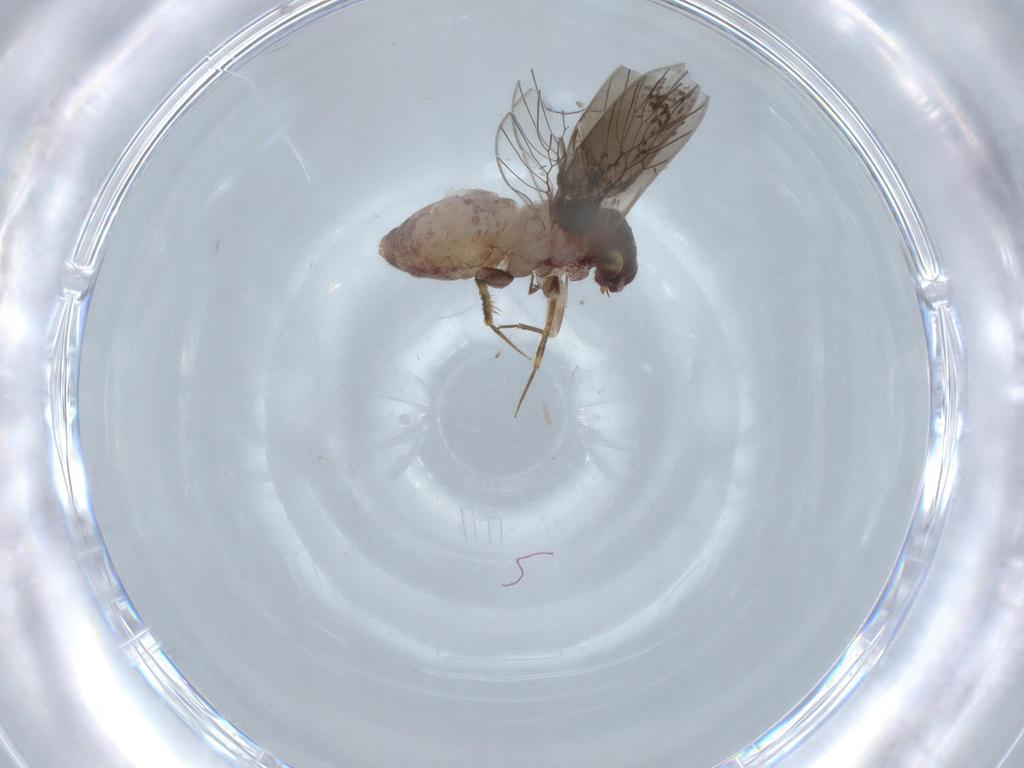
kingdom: Animalia
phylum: Arthropoda
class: Insecta
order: Psocodea
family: Lepidopsocidae
